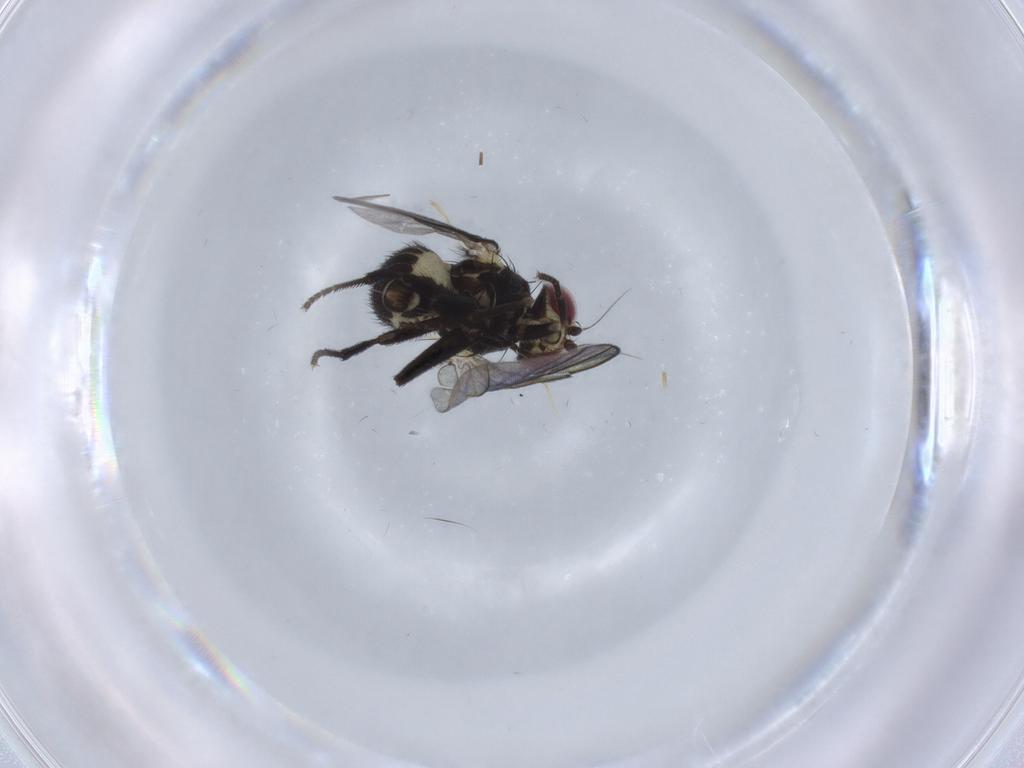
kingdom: Animalia
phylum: Arthropoda
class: Insecta
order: Diptera
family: Agromyzidae
